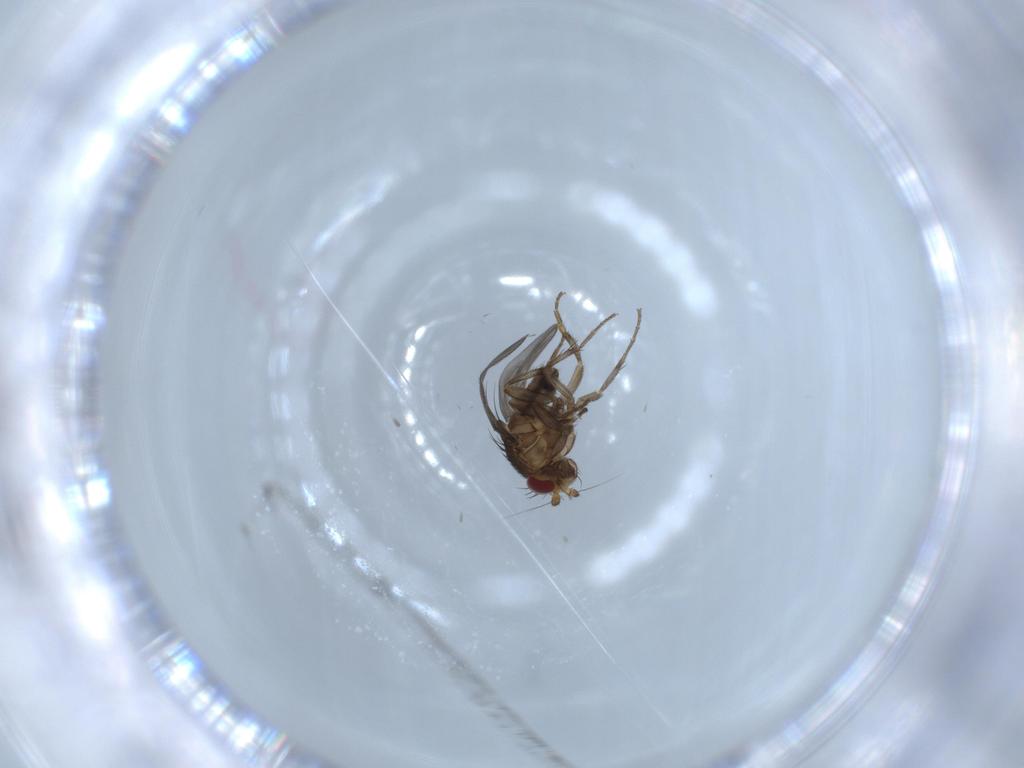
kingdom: Animalia
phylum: Arthropoda
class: Insecta
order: Diptera
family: Sphaeroceridae
